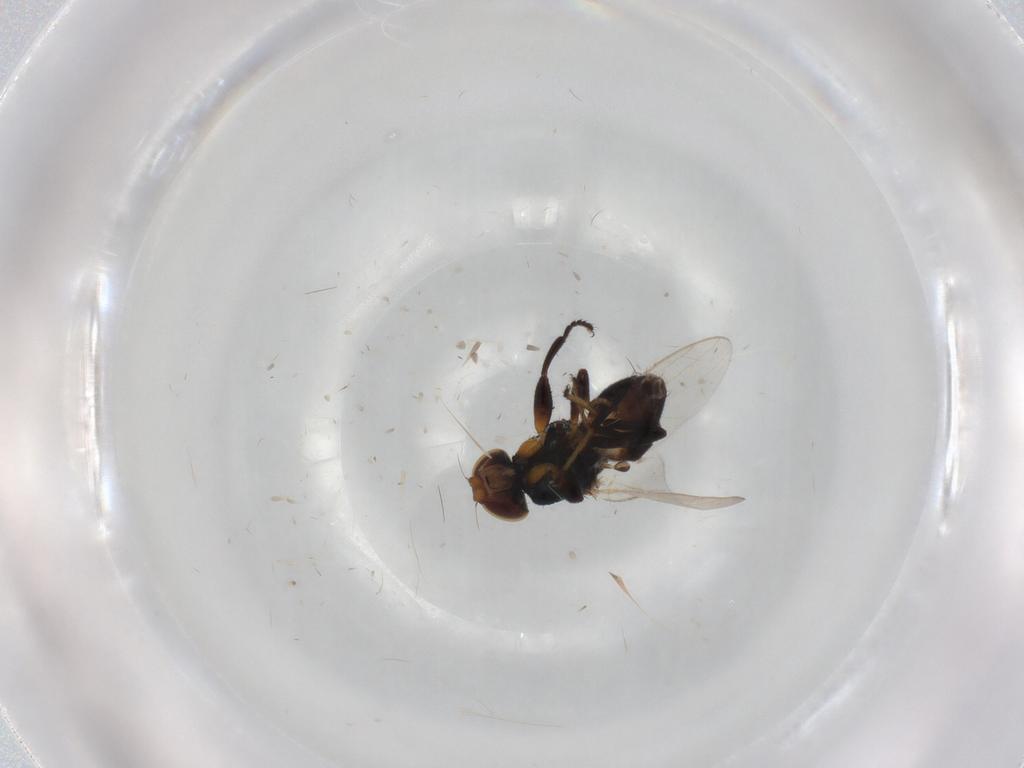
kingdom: Animalia
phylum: Arthropoda
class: Insecta
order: Diptera
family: Chloropidae
